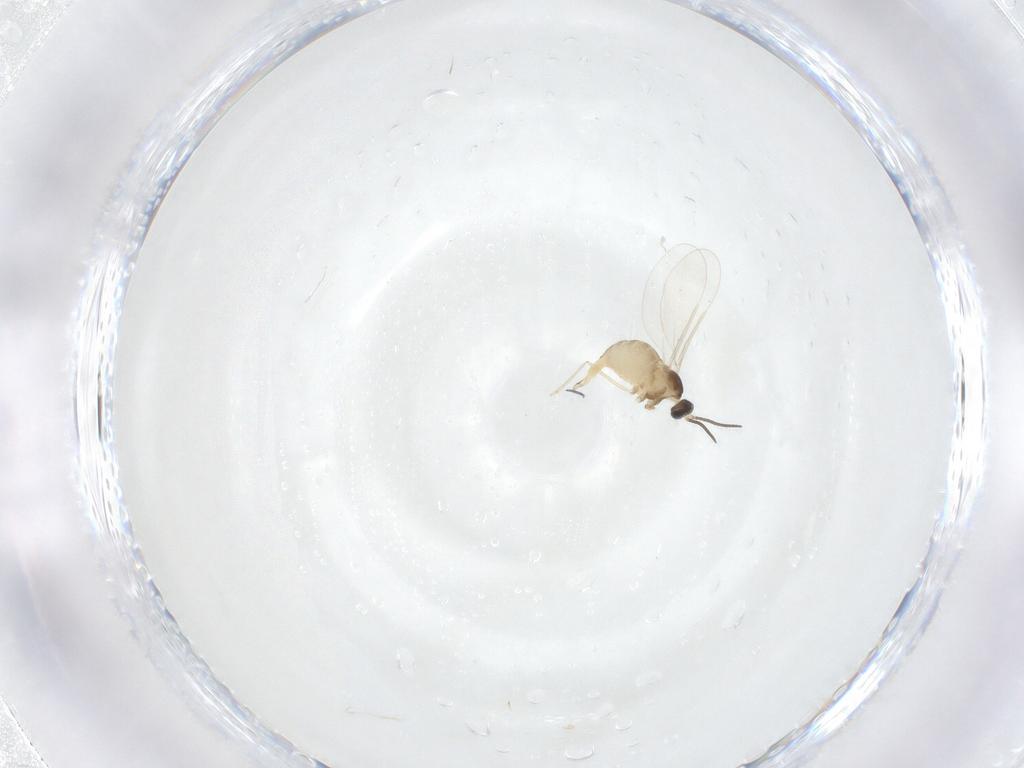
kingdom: Animalia
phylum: Arthropoda
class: Insecta
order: Diptera
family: Cecidomyiidae
